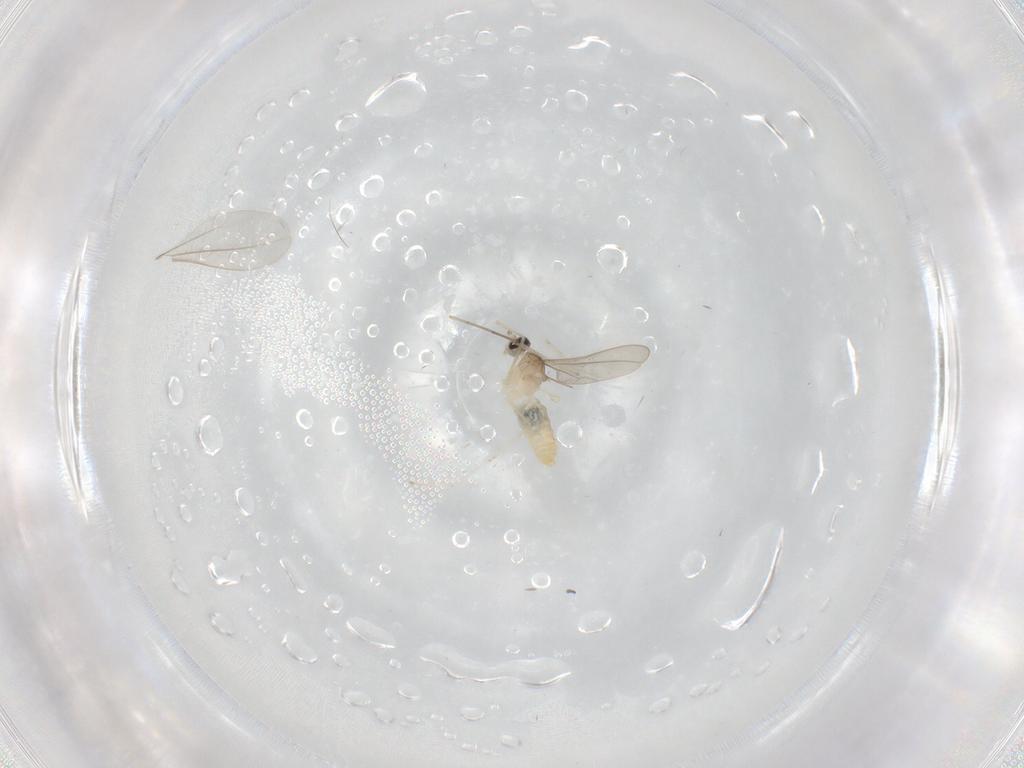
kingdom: Animalia
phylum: Arthropoda
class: Insecta
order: Diptera
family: Cecidomyiidae
